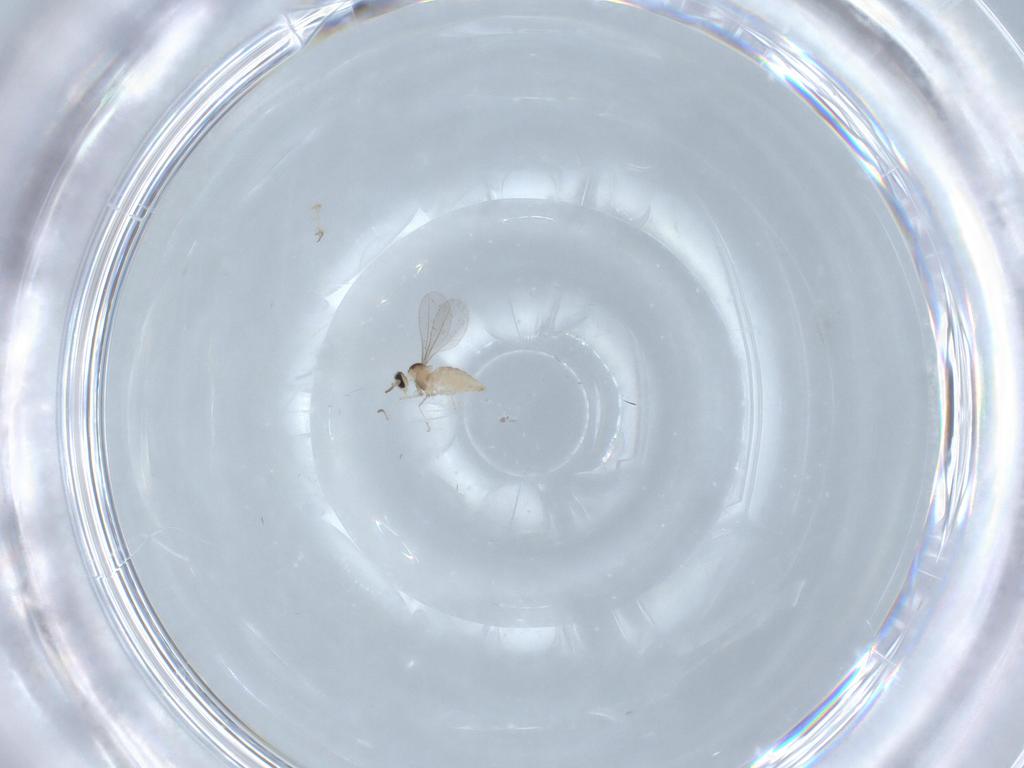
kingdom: Animalia
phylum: Arthropoda
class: Insecta
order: Diptera
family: Cecidomyiidae
